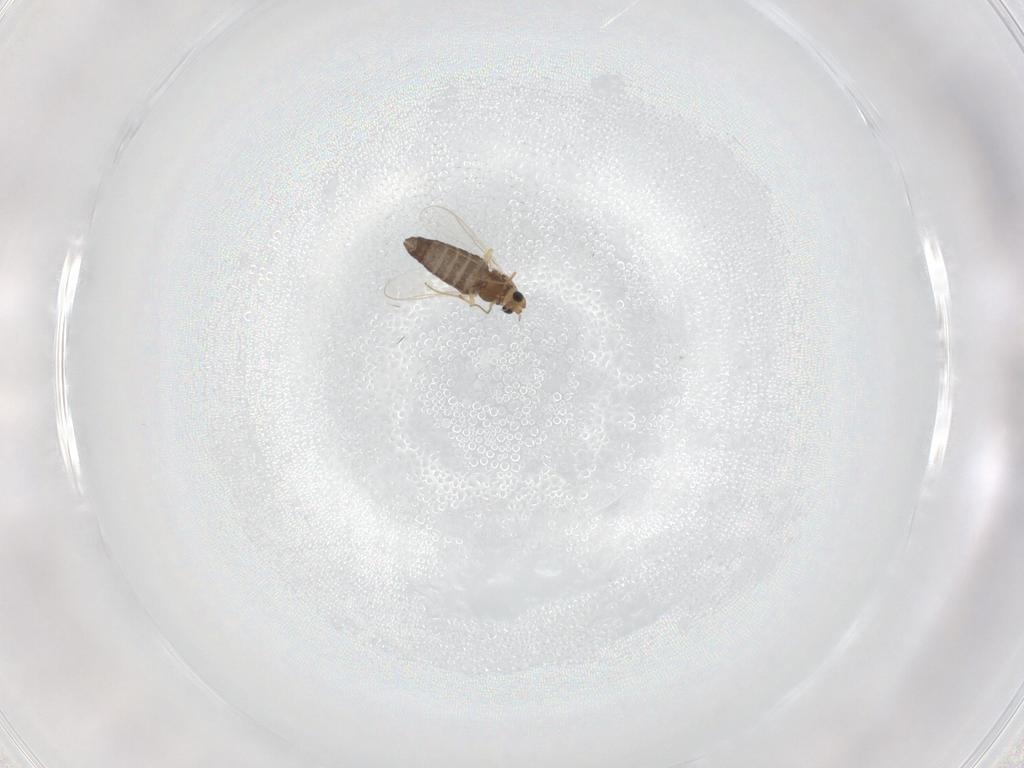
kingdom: Animalia
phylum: Arthropoda
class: Insecta
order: Diptera
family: Chironomidae
